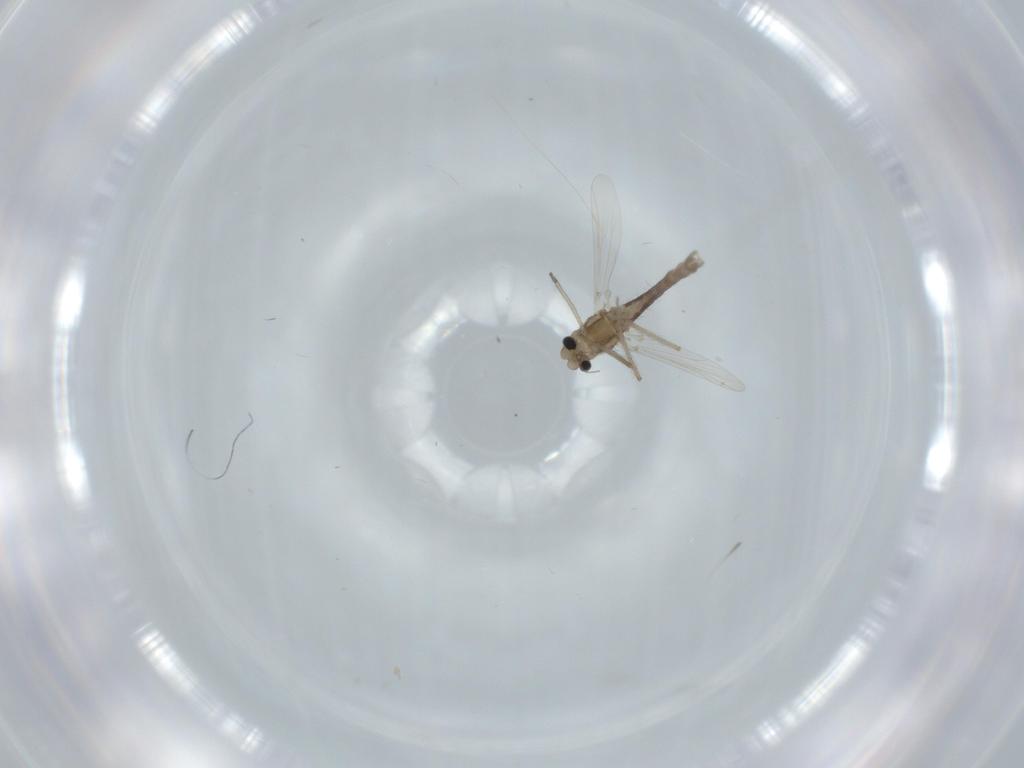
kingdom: Animalia
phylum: Arthropoda
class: Insecta
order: Diptera
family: Chironomidae
